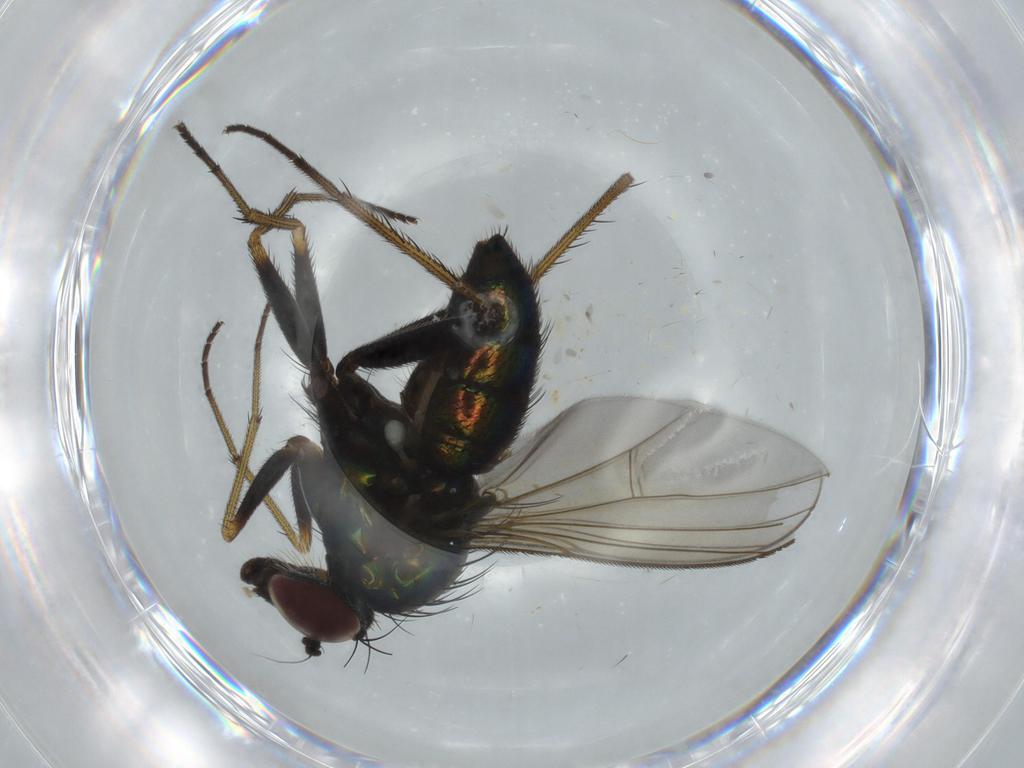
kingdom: Animalia
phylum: Arthropoda
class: Insecta
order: Diptera
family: Dolichopodidae
